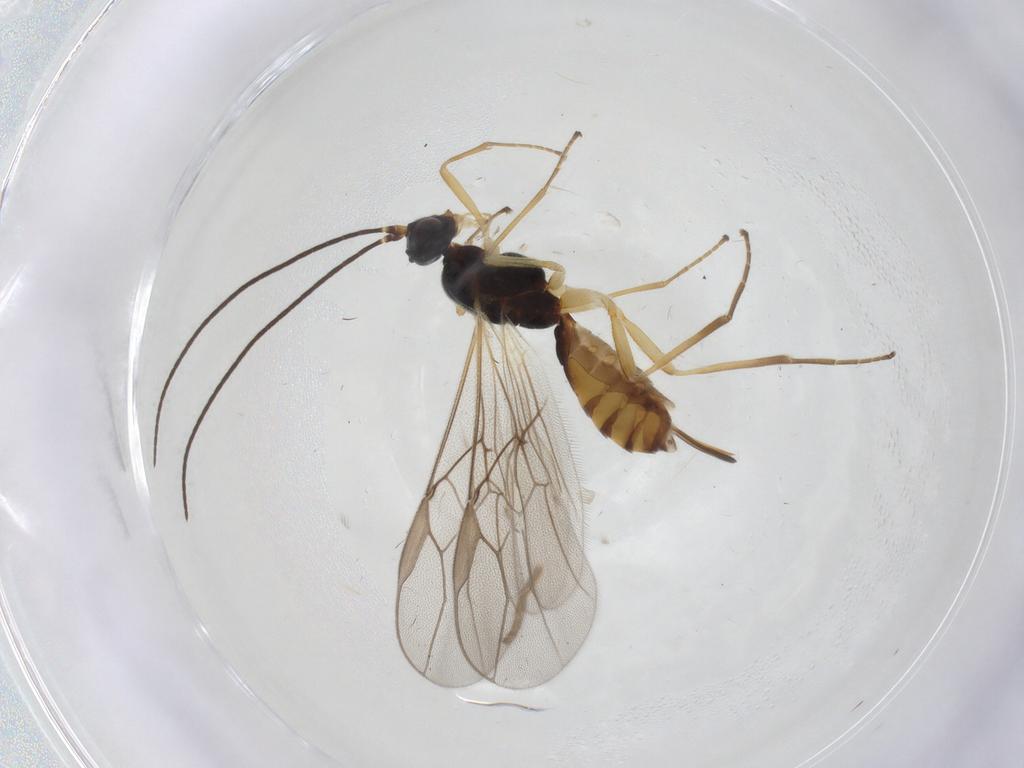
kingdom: Animalia
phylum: Arthropoda
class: Insecta
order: Hymenoptera
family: Braconidae
